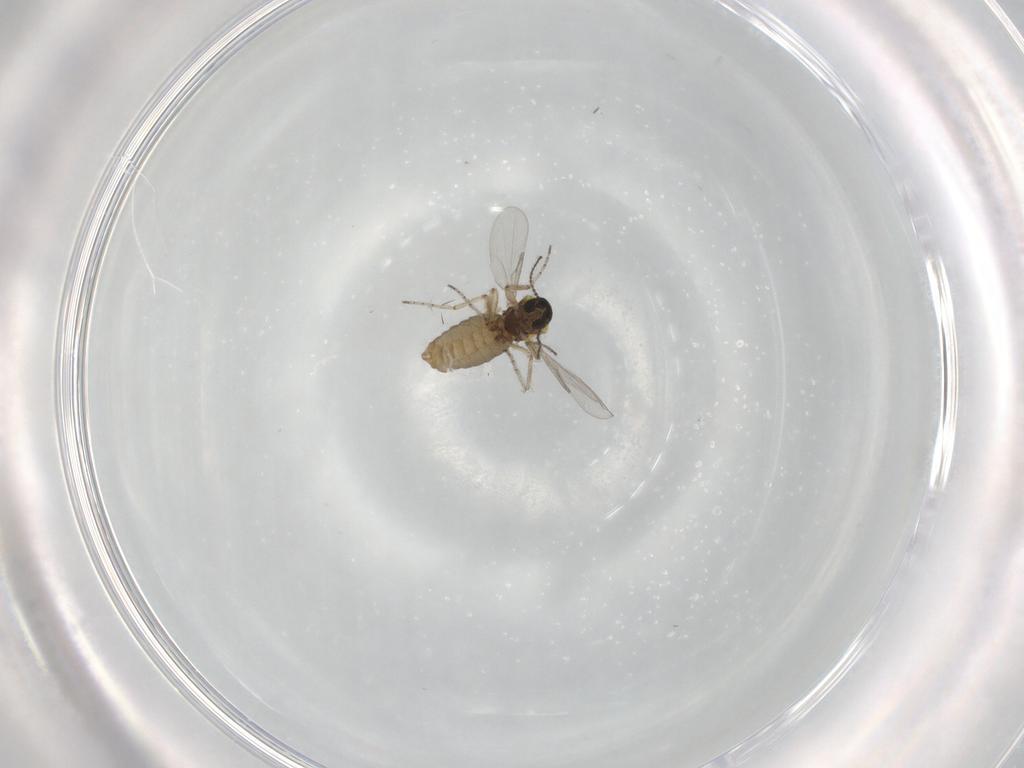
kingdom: Animalia
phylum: Arthropoda
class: Insecta
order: Diptera
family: Ceratopogonidae
